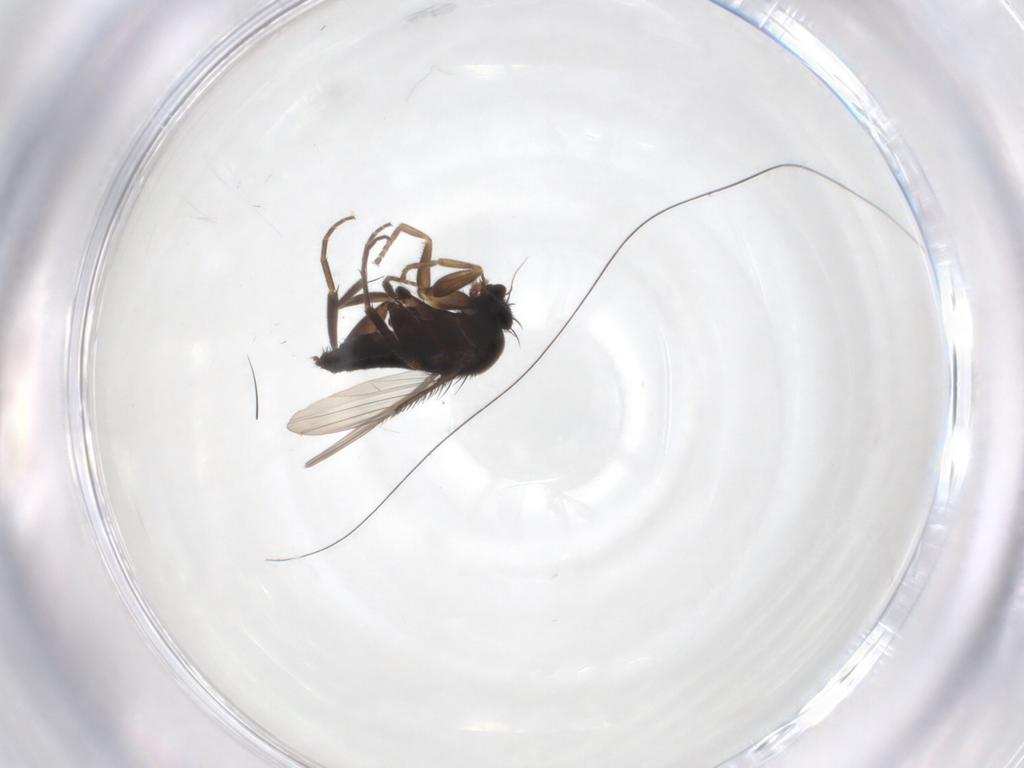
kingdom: Animalia
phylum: Arthropoda
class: Insecta
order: Diptera
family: Phoridae
